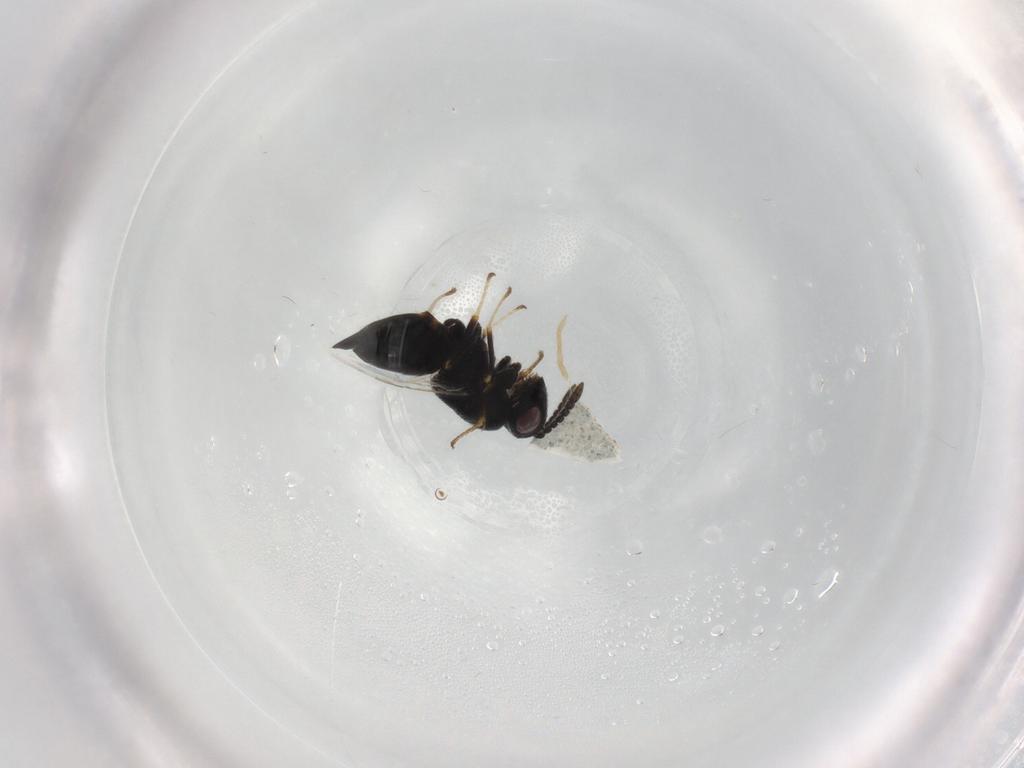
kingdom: Animalia
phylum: Arthropoda
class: Insecta
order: Hymenoptera
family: Eurytomidae
